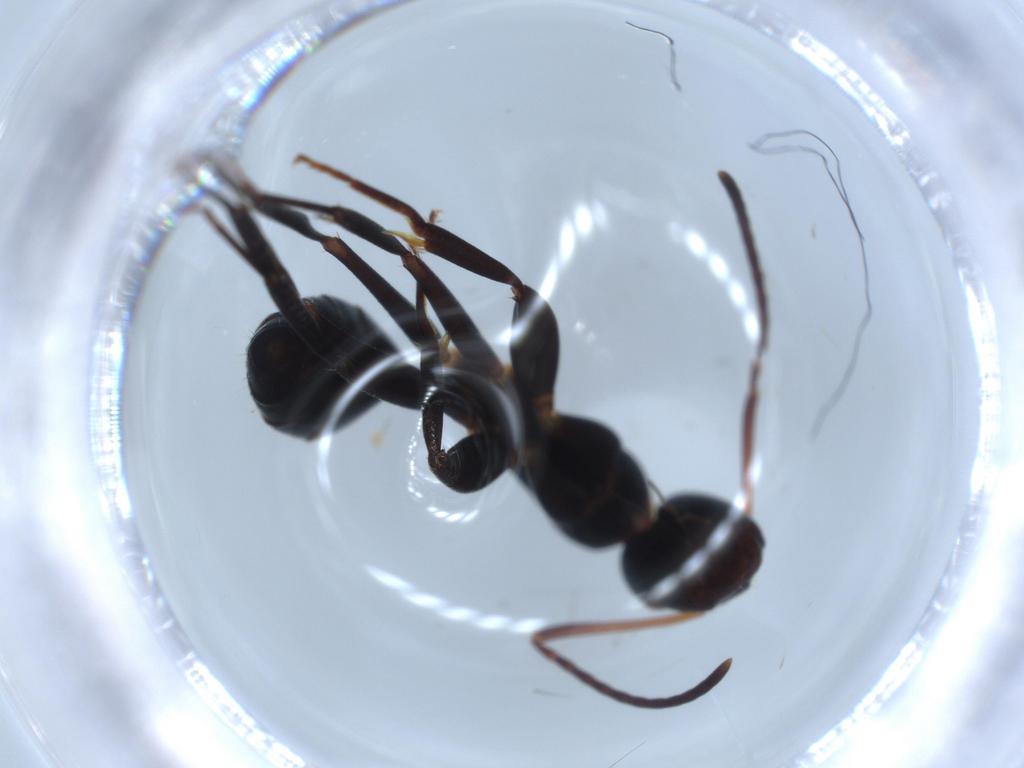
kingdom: Animalia
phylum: Arthropoda
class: Insecta
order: Hymenoptera
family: Formicidae
